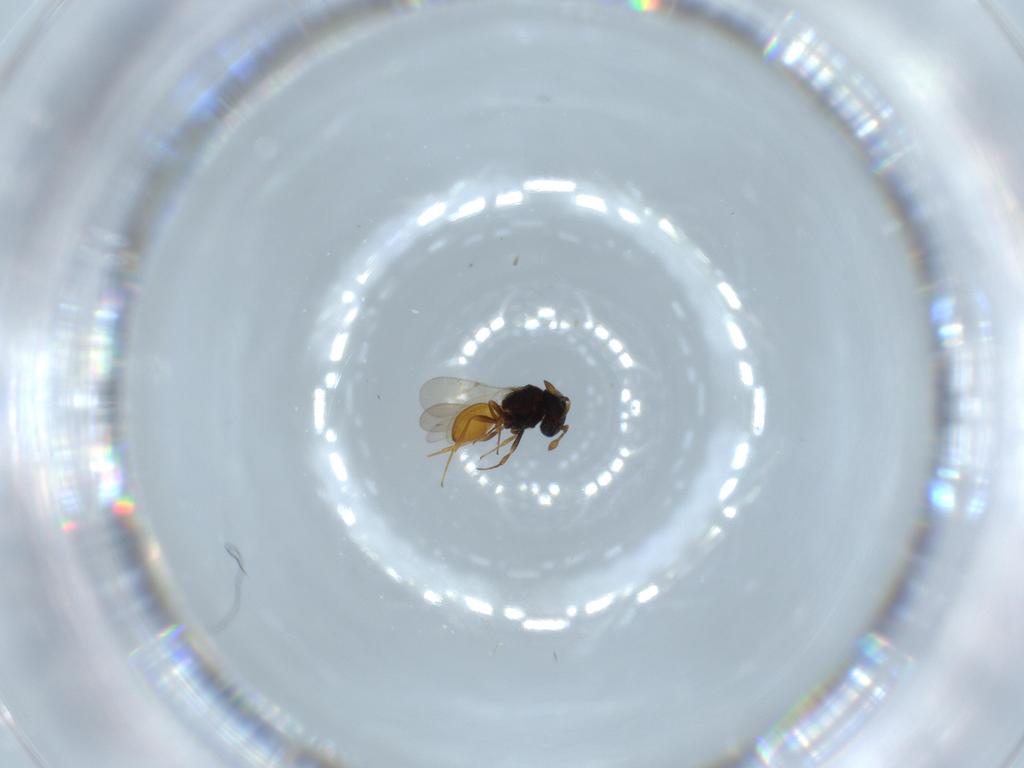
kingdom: Animalia
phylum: Arthropoda
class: Insecta
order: Hymenoptera
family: Scelionidae
